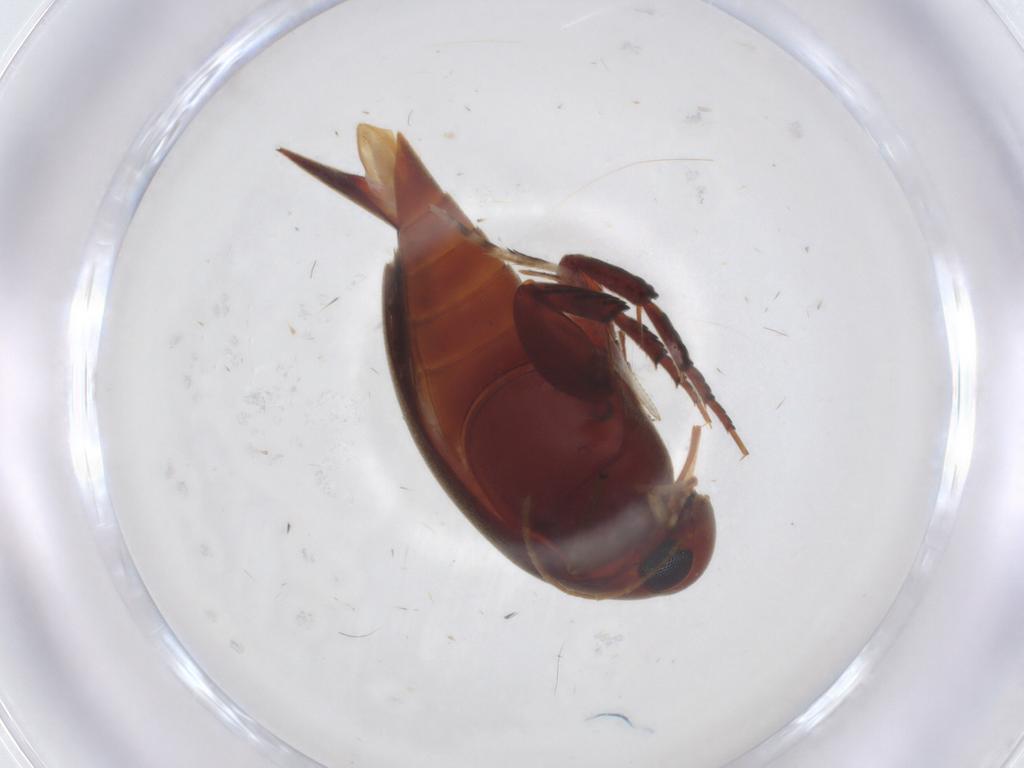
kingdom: Animalia
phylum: Arthropoda
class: Insecta
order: Coleoptera
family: Mordellidae
